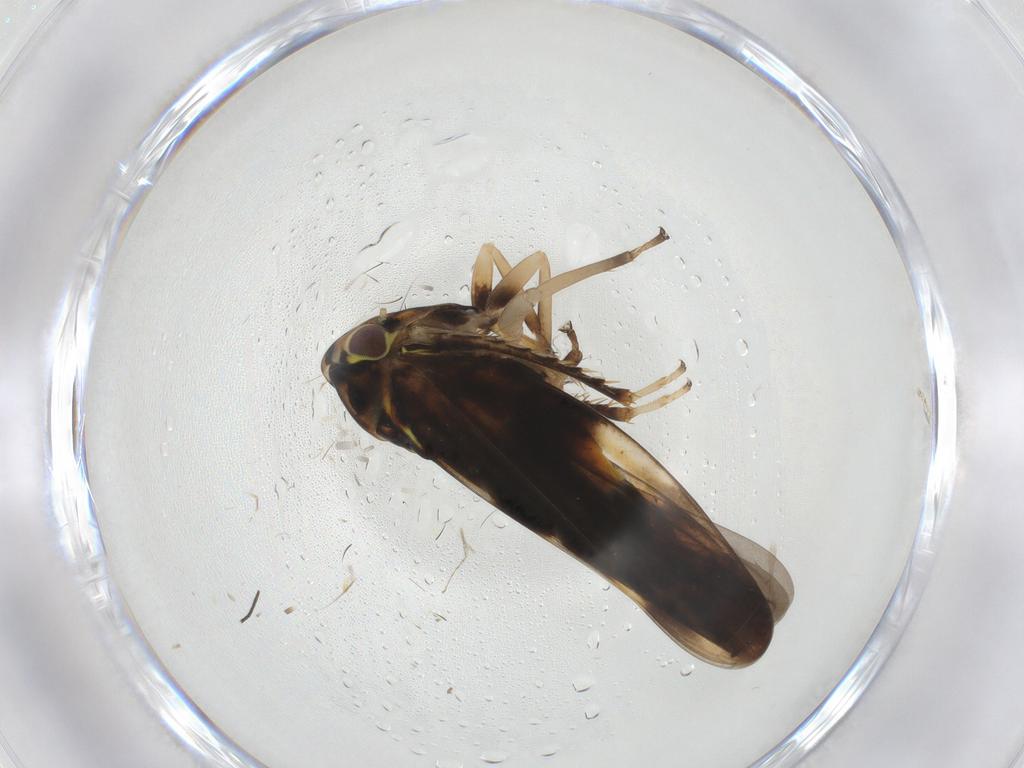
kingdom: Animalia
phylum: Arthropoda
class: Insecta
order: Hemiptera
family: Cicadellidae
